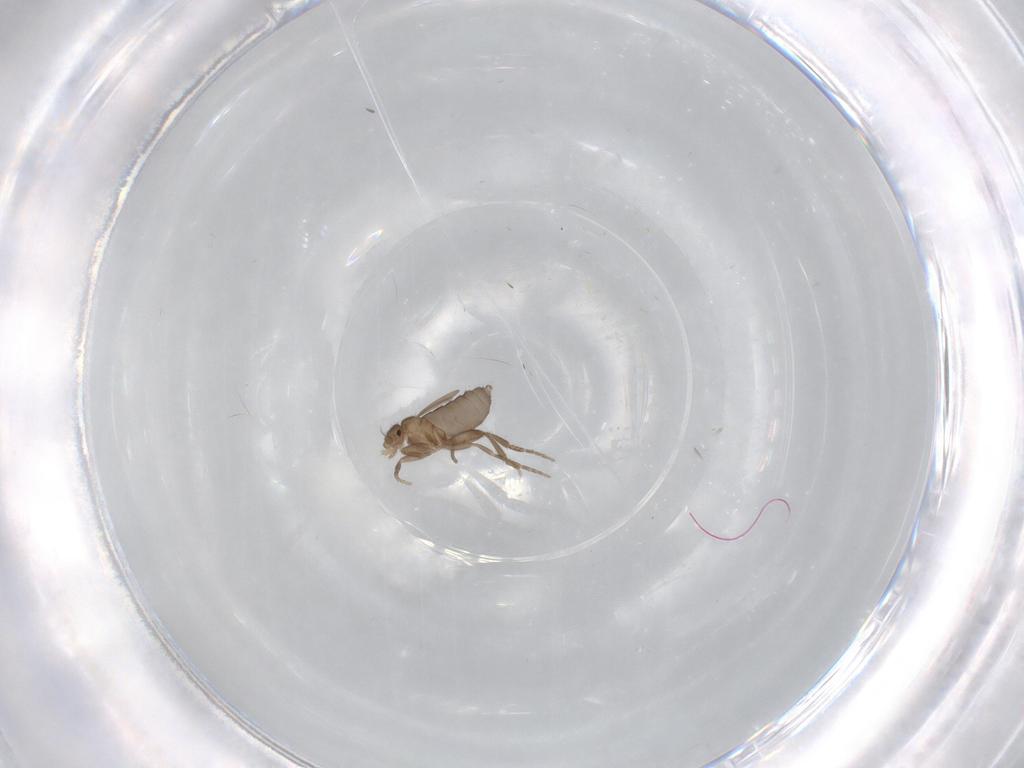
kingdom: Animalia
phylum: Arthropoda
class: Insecta
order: Diptera
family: Phoridae
